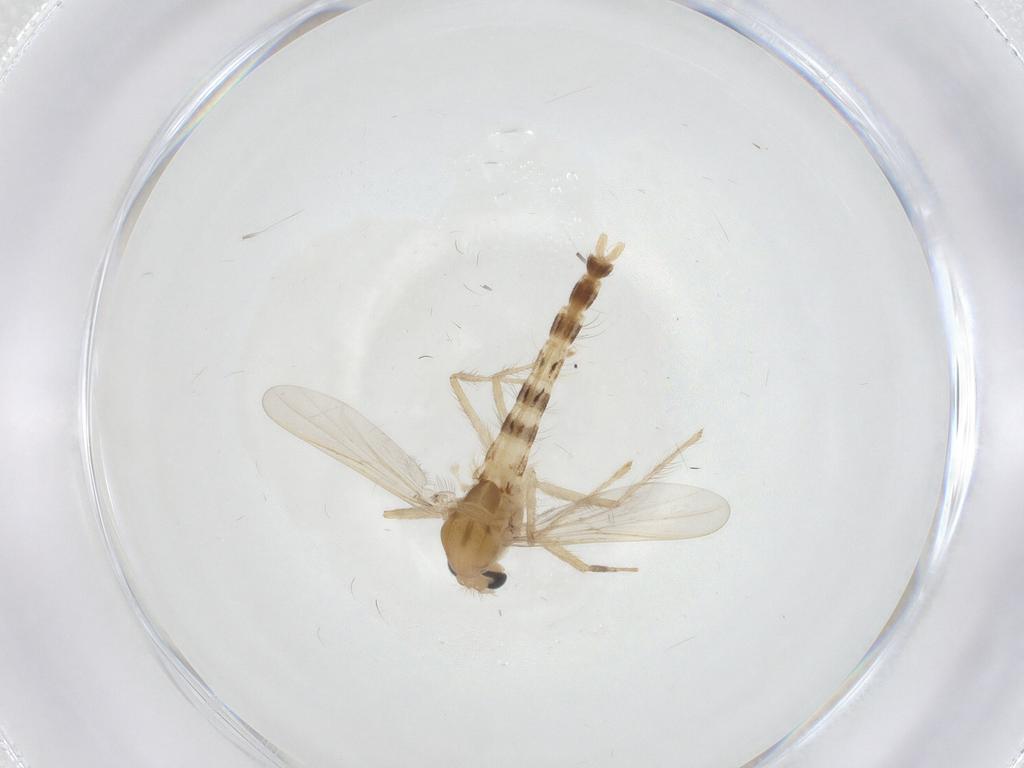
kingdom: Animalia
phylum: Arthropoda
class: Insecta
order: Diptera
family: Chironomidae
